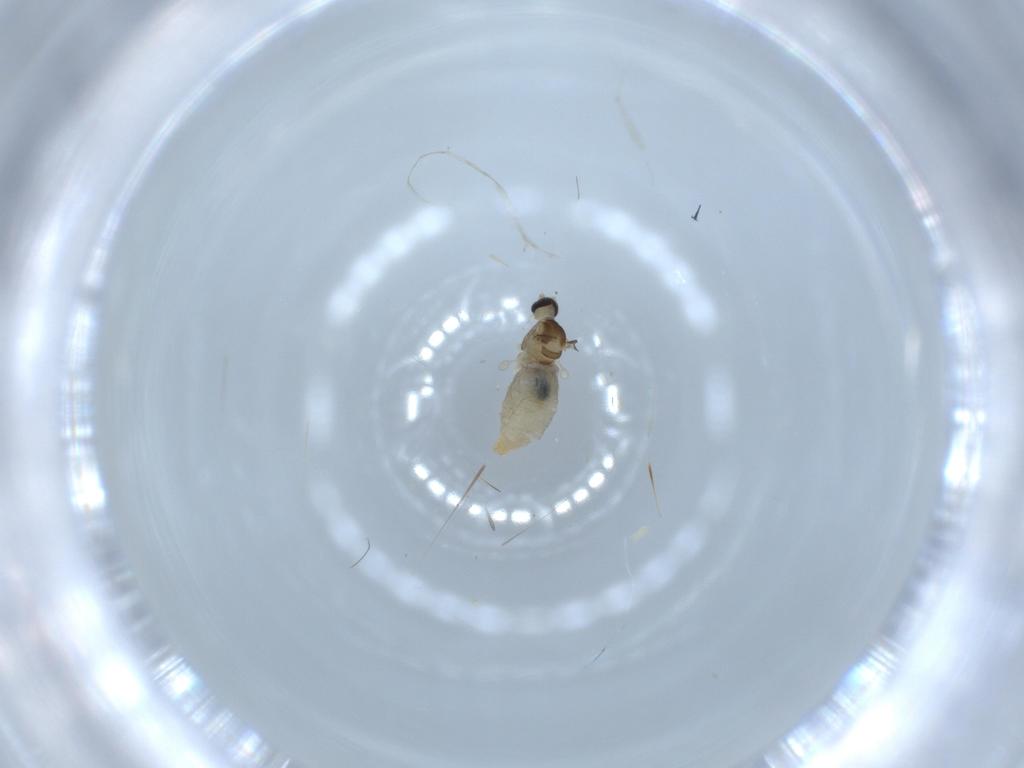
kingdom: Animalia
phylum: Arthropoda
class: Insecta
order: Diptera
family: Cecidomyiidae
